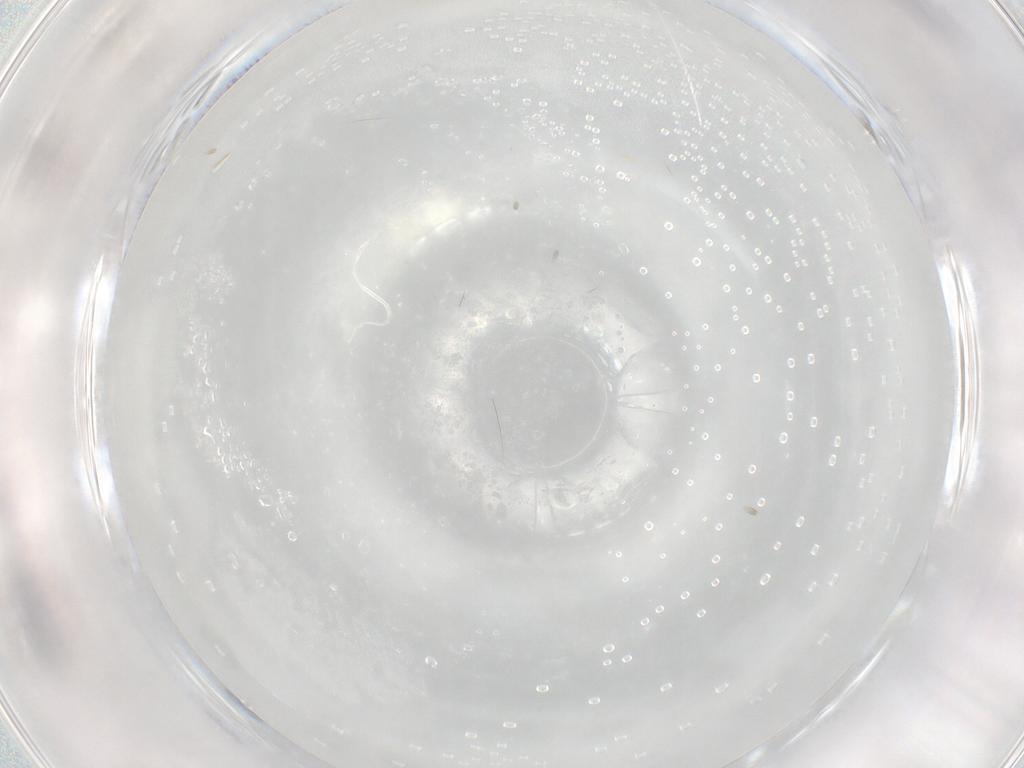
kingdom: Animalia
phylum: Arthropoda
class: Insecta
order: Diptera
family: Cecidomyiidae
